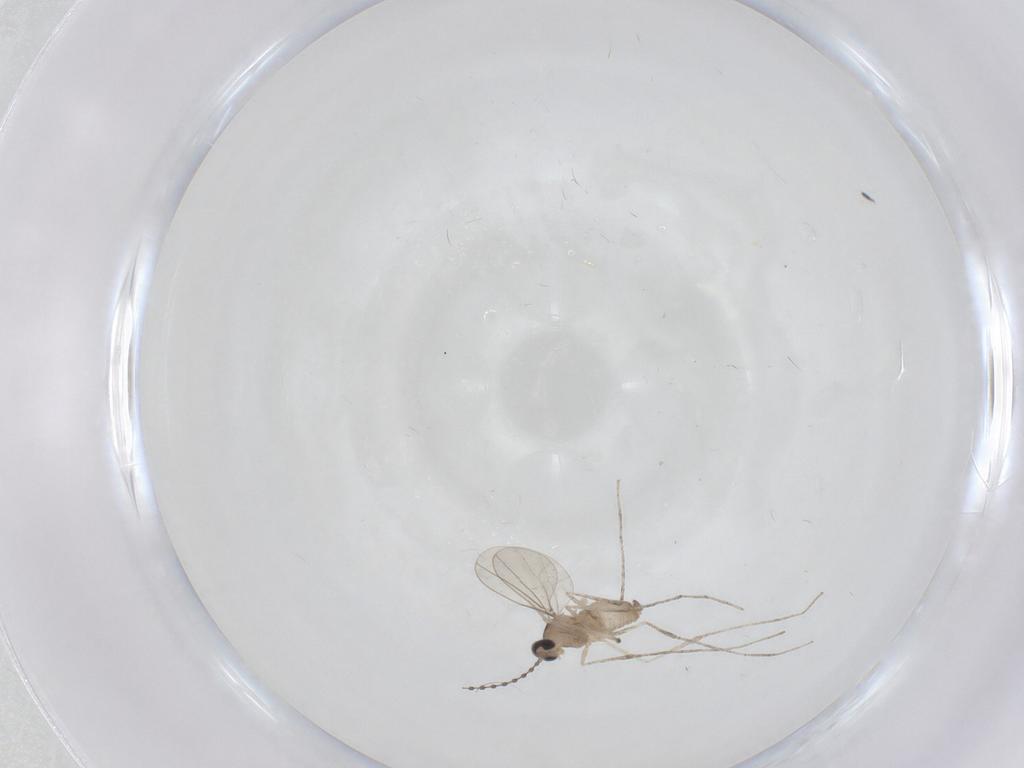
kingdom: Animalia
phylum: Arthropoda
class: Insecta
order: Diptera
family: Cecidomyiidae
